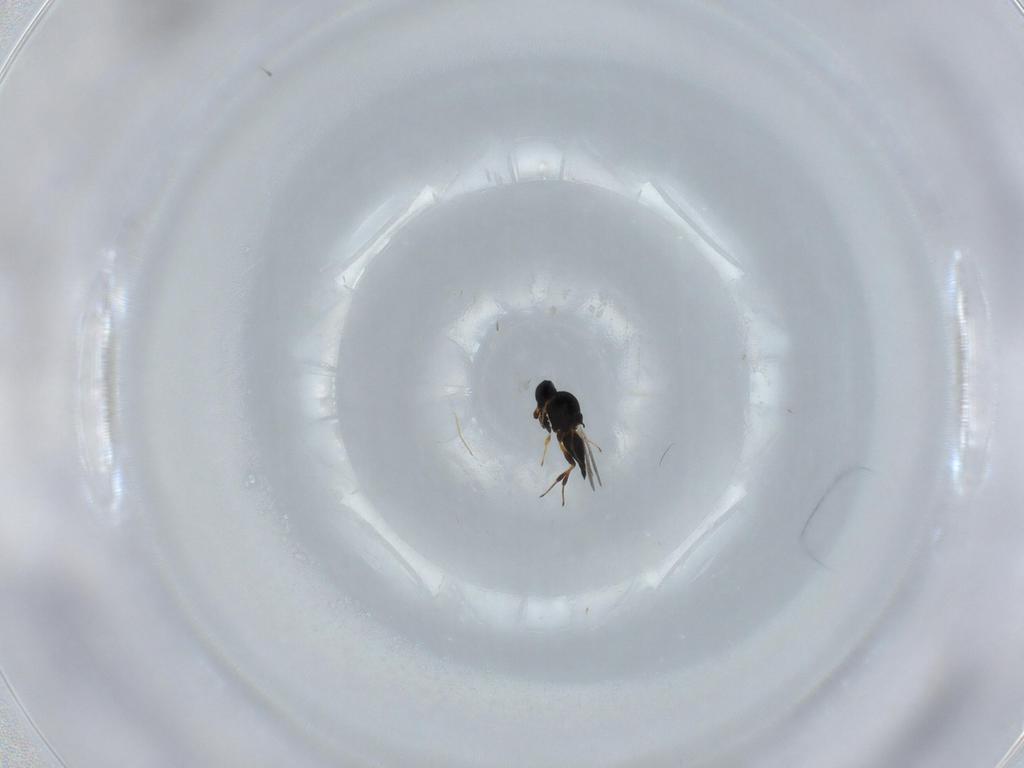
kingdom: Animalia
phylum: Arthropoda
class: Insecta
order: Hymenoptera
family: Platygastridae
